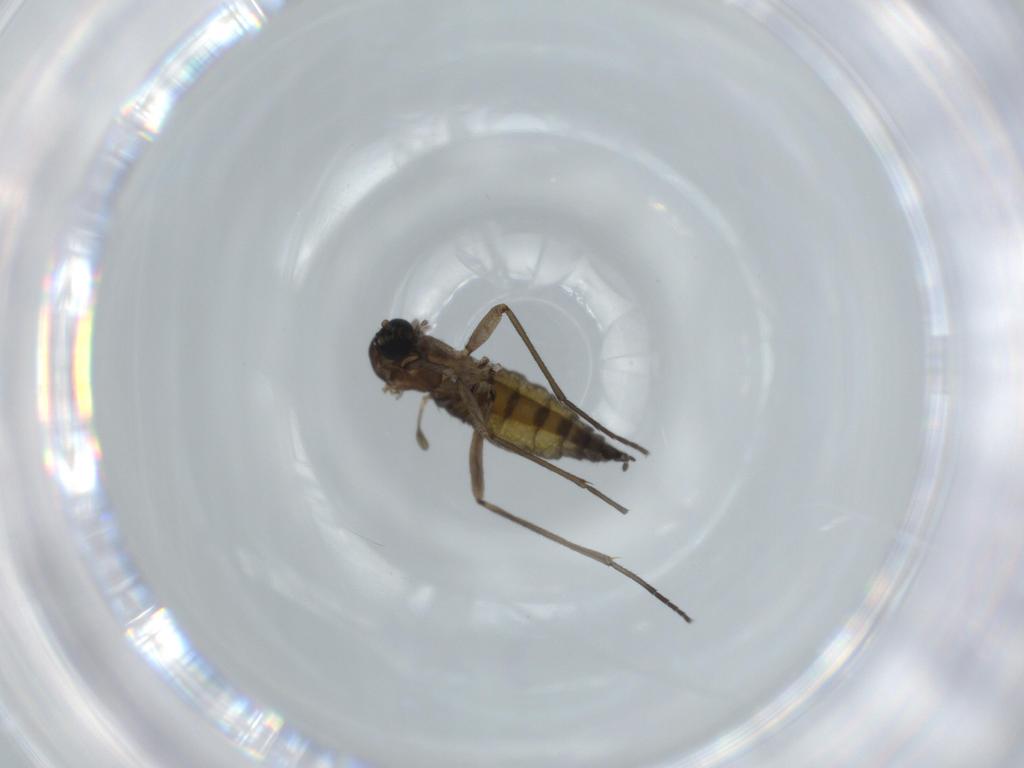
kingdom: Animalia
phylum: Arthropoda
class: Insecta
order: Diptera
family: Sciaridae
